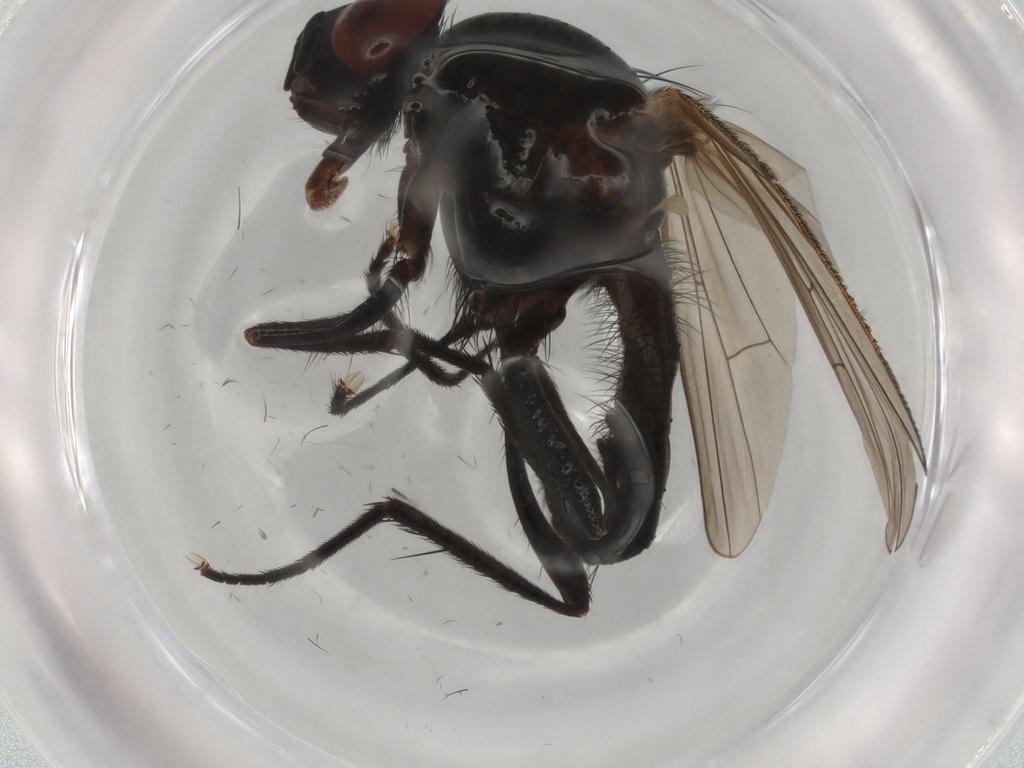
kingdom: Animalia
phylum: Arthropoda
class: Insecta
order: Diptera
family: Anthomyiidae
